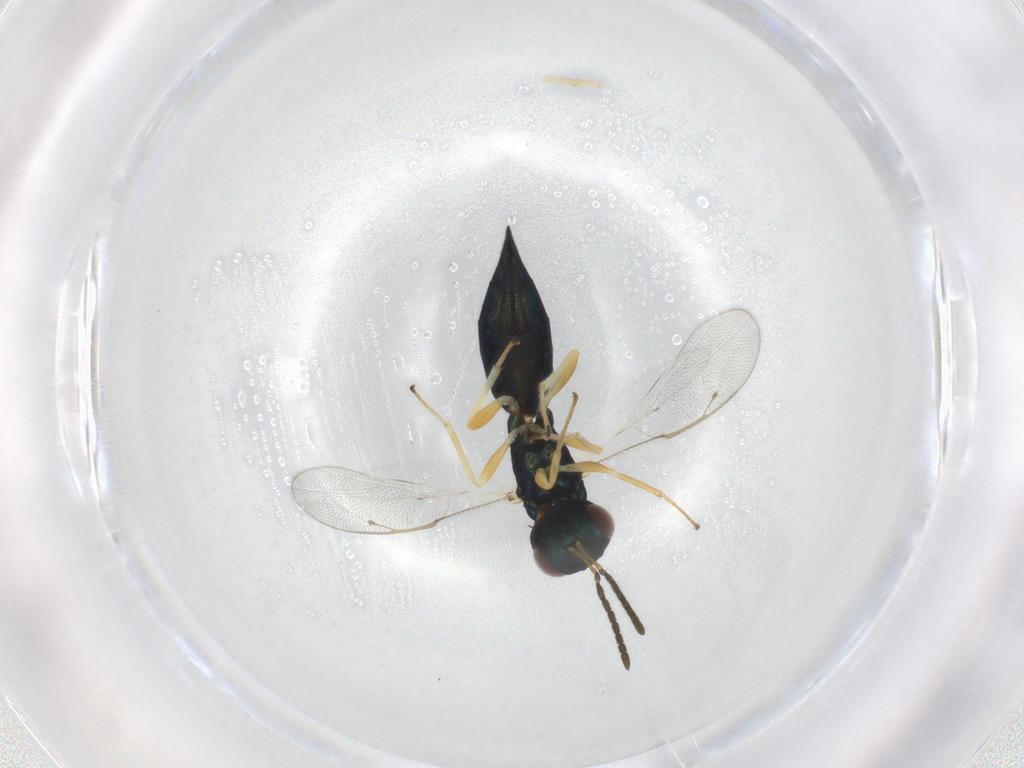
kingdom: Animalia
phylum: Arthropoda
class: Insecta
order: Hymenoptera
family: Pteromalidae
